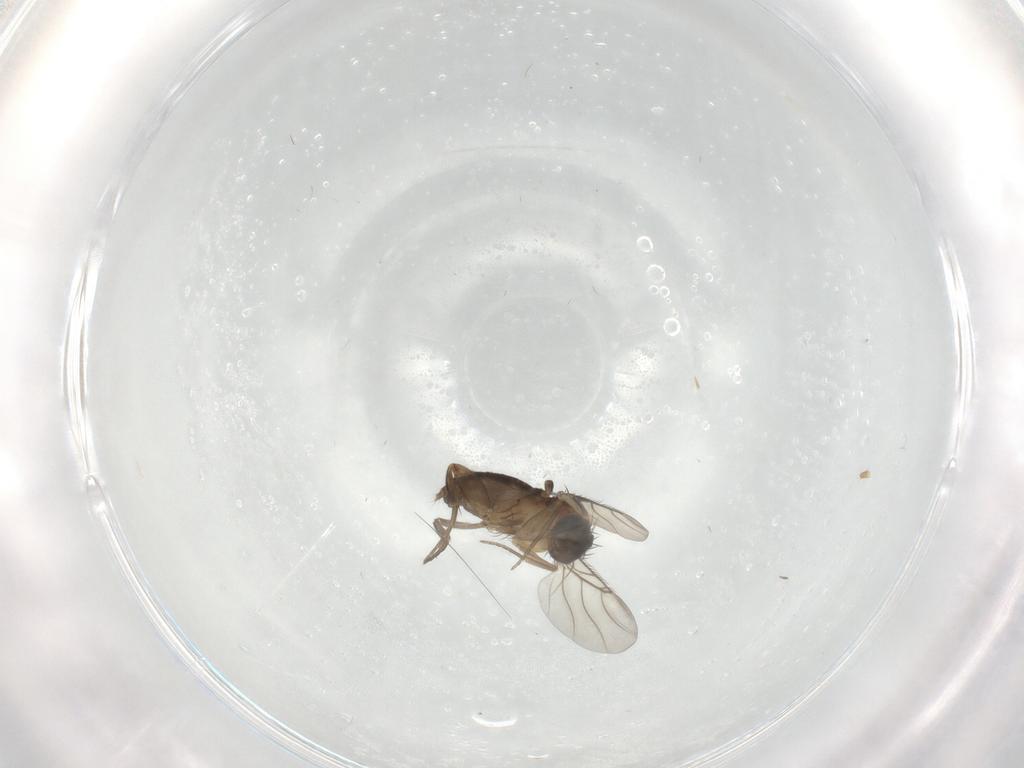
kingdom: Animalia
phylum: Arthropoda
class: Insecta
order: Diptera
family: Phoridae
